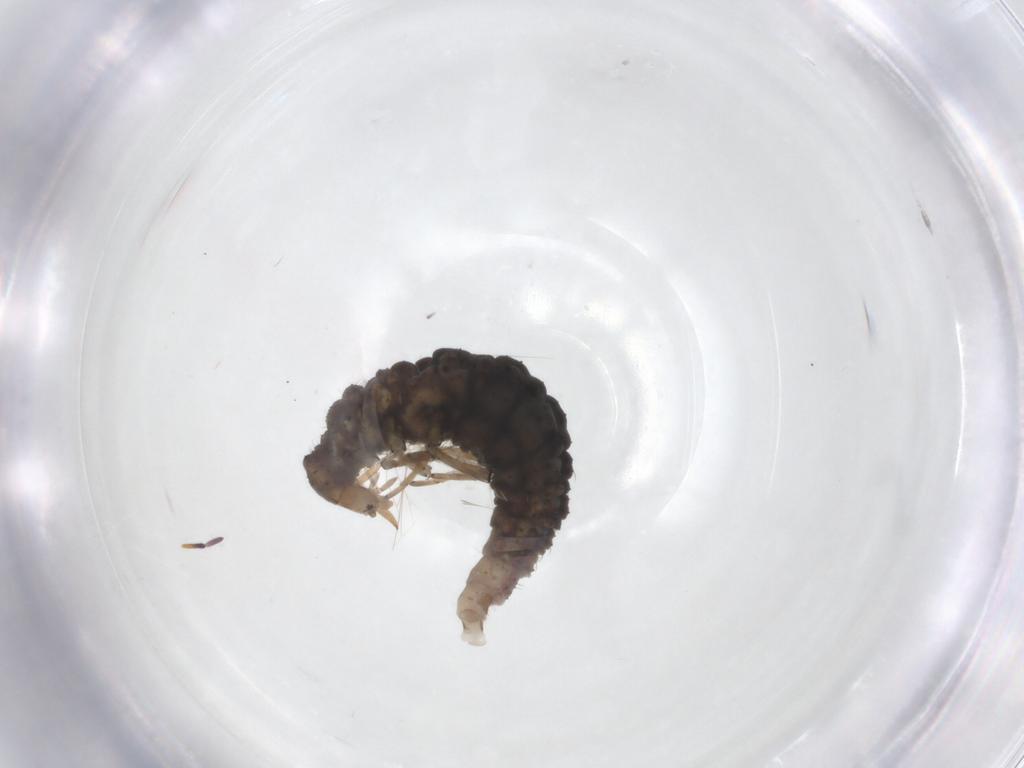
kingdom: Animalia
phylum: Arthropoda
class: Insecta
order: Neuroptera
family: Hemerobiidae
